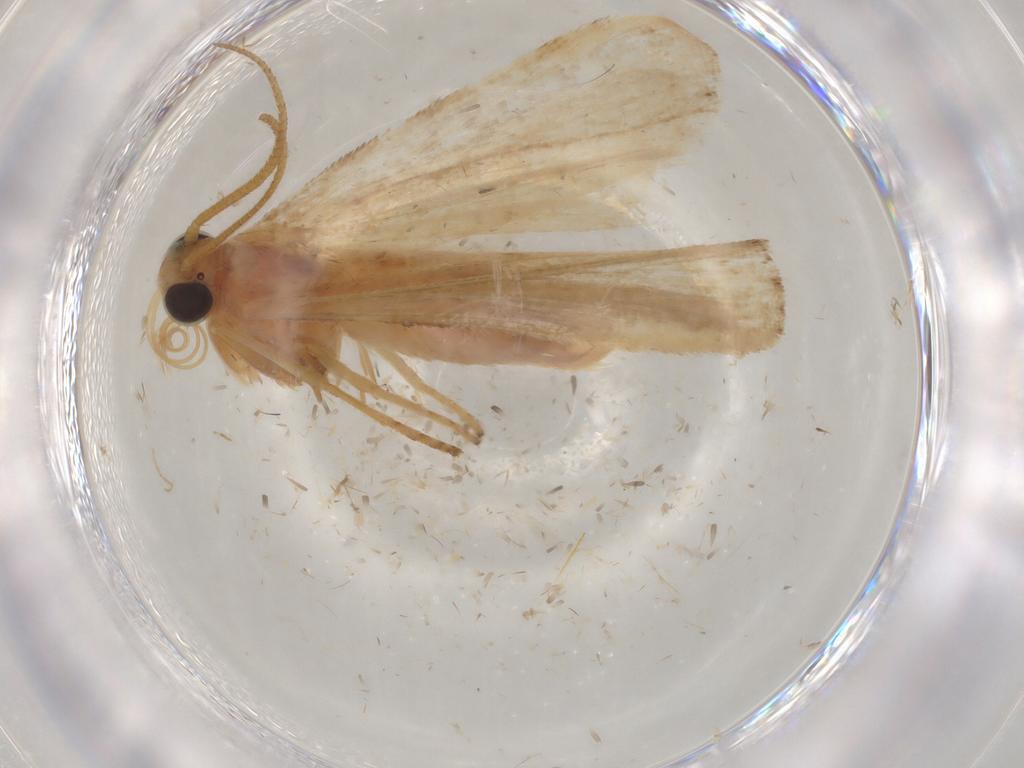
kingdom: Animalia
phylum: Arthropoda
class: Insecta
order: Lepidoptera
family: Pyralidae
